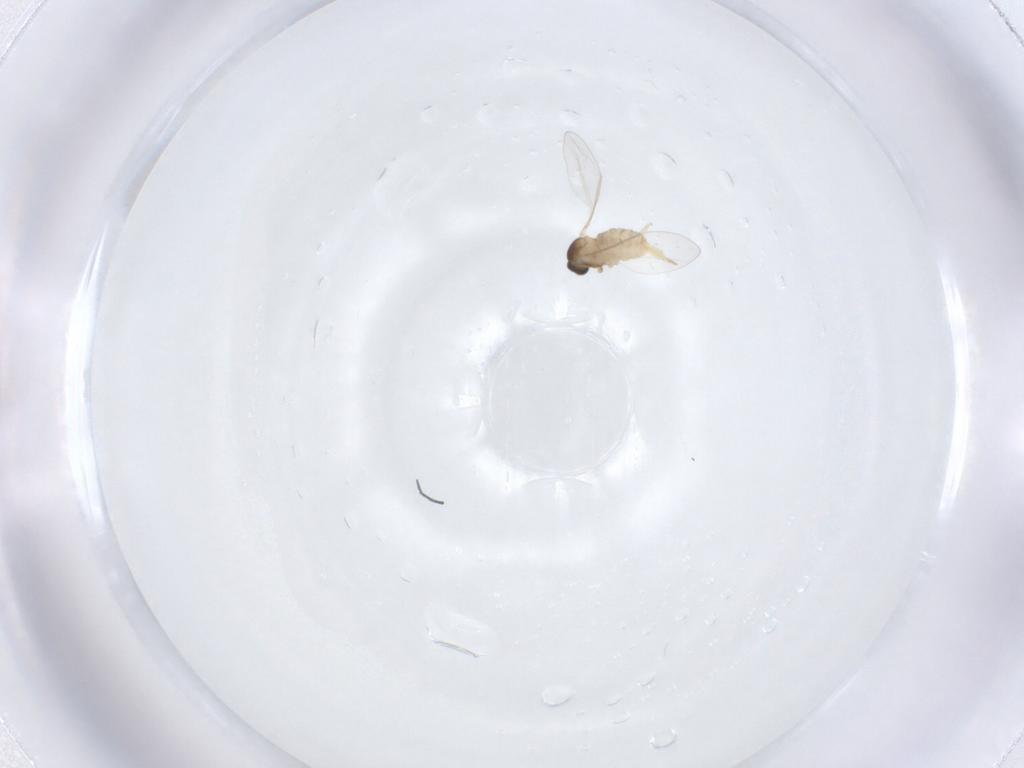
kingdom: Animalia
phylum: Arthropoda
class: Insecta
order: Diptera
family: Cecidomyiidae
